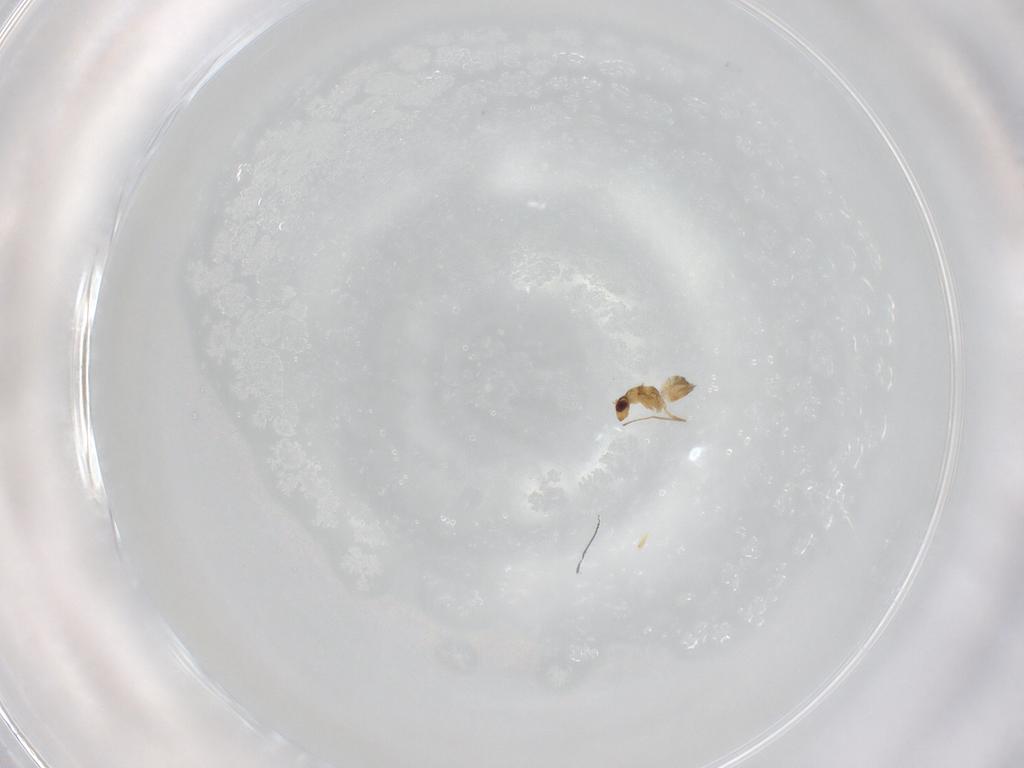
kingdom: Animalia
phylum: Arthropoda
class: Insecta
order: Hymenoptera
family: Mymaridae
